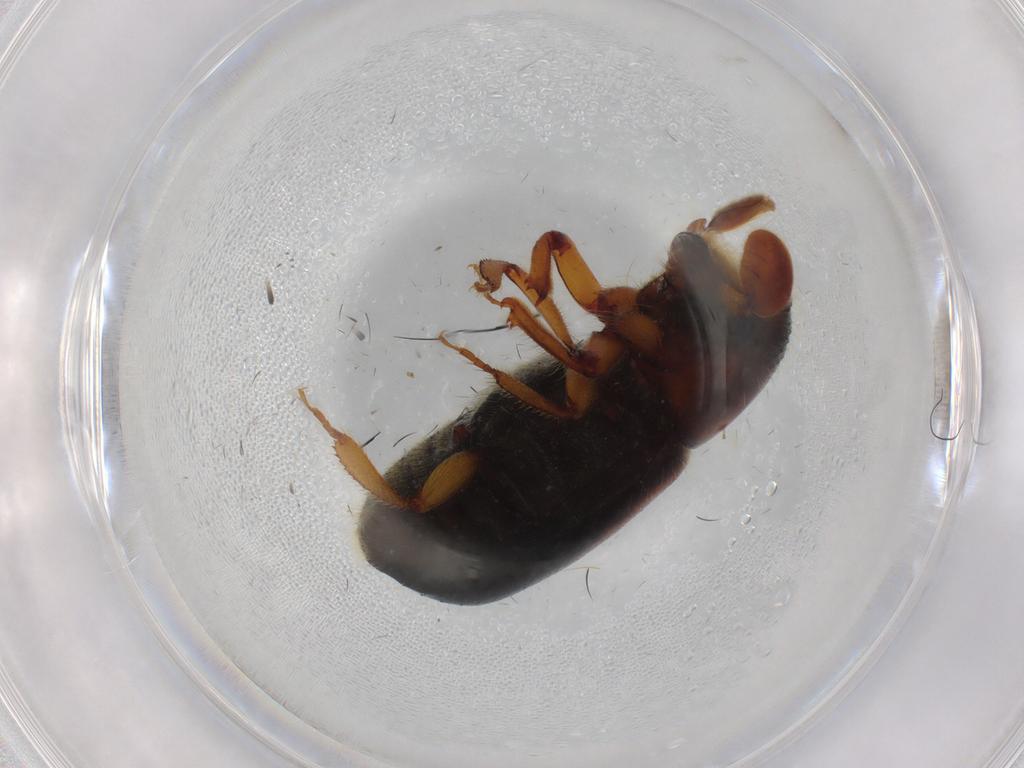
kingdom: Animalia
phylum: Arthropoda
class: Insecta
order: Coleoptera
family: Curculionidae
